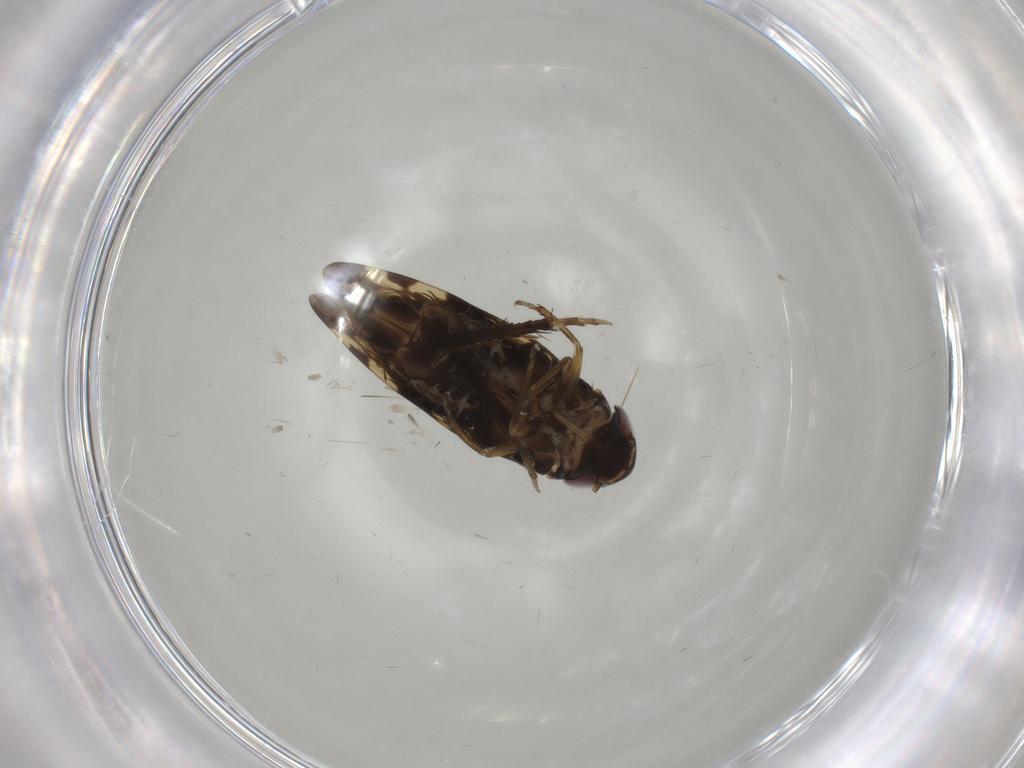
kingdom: Animalia
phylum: Arthropoda
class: Insecta
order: Hemiptera
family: Cicadellidae
